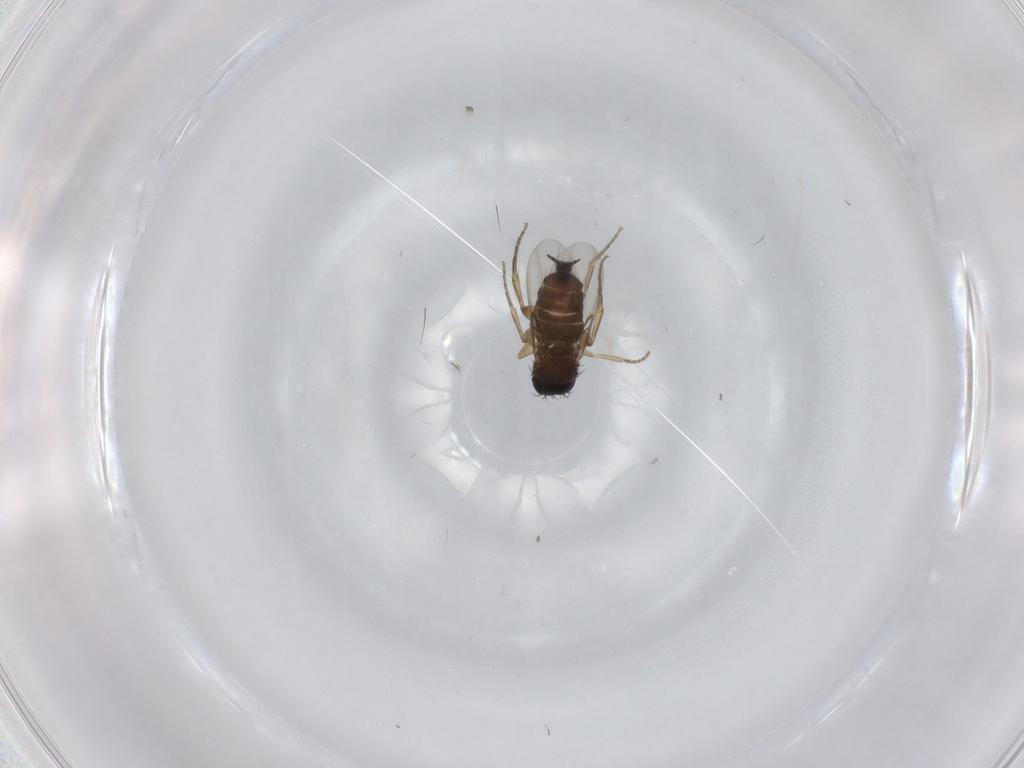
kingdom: Animalia
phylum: Arthropoda
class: Insecta
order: Diptera
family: Phoridae
